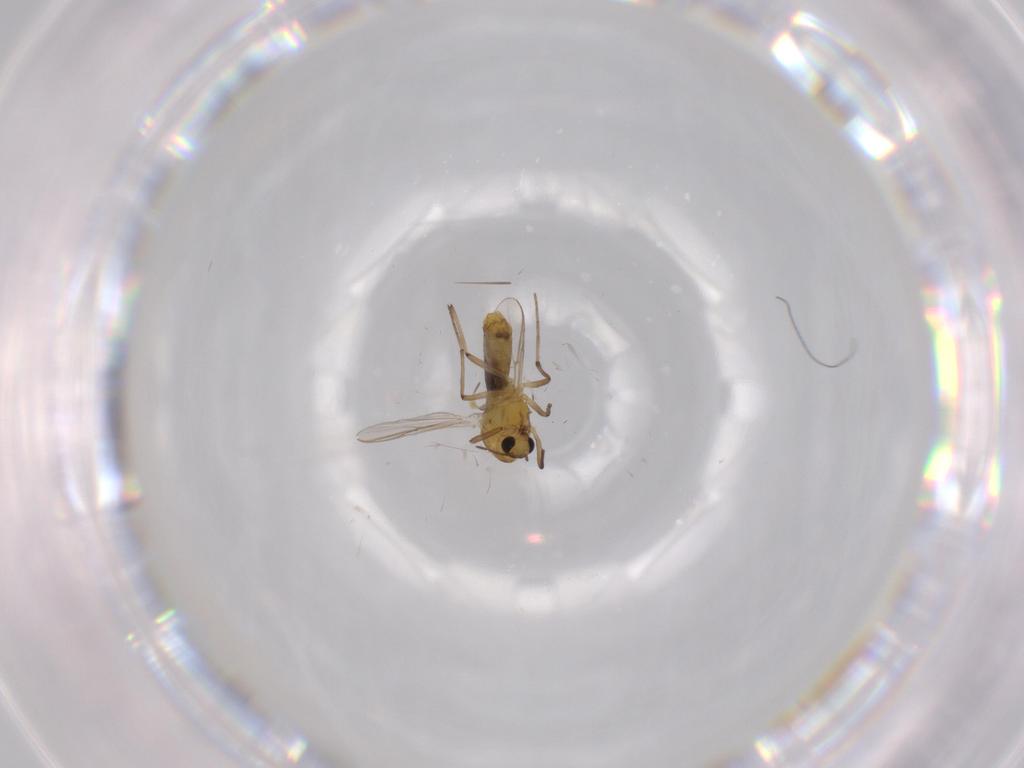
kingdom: Animalia
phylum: Arthropoda
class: Insecta
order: Diptera
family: Chironomidae
